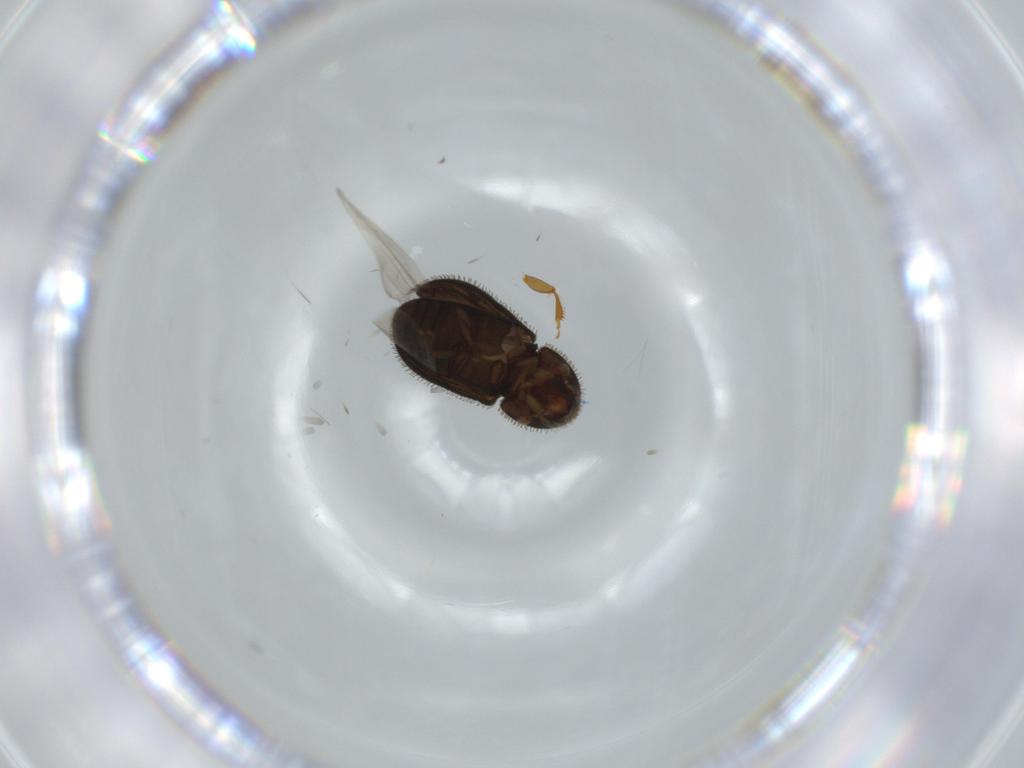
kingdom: Animalia
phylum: Arthropoda
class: Insecta
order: Coleoptera
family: Curculionidae
